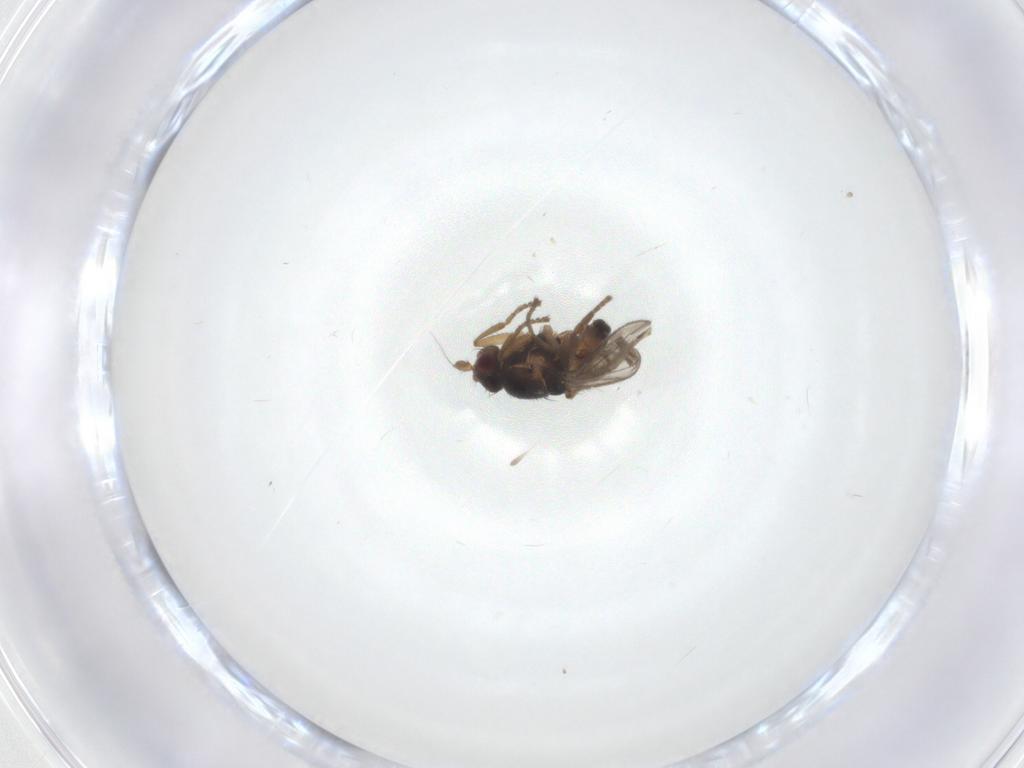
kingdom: Animalia
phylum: Arthropoda
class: Insecta
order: Diptera
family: Sphaeroceridae
